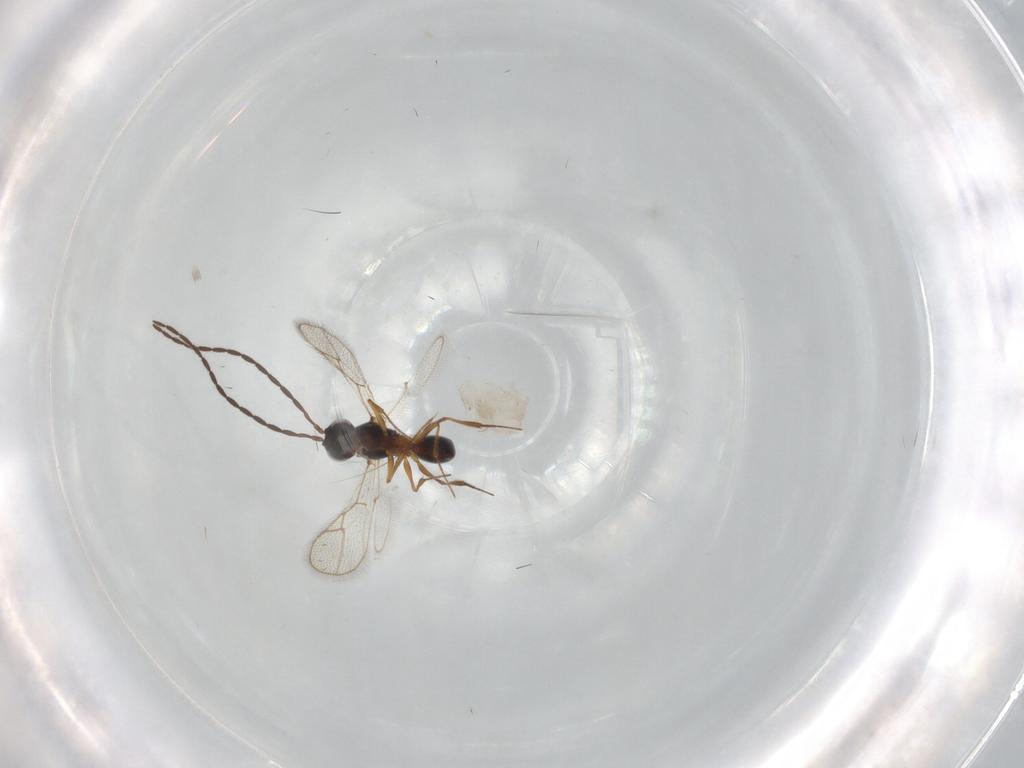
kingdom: Animalia
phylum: Arthropoda
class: Insecta
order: Hymenoptera
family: Figitidae
